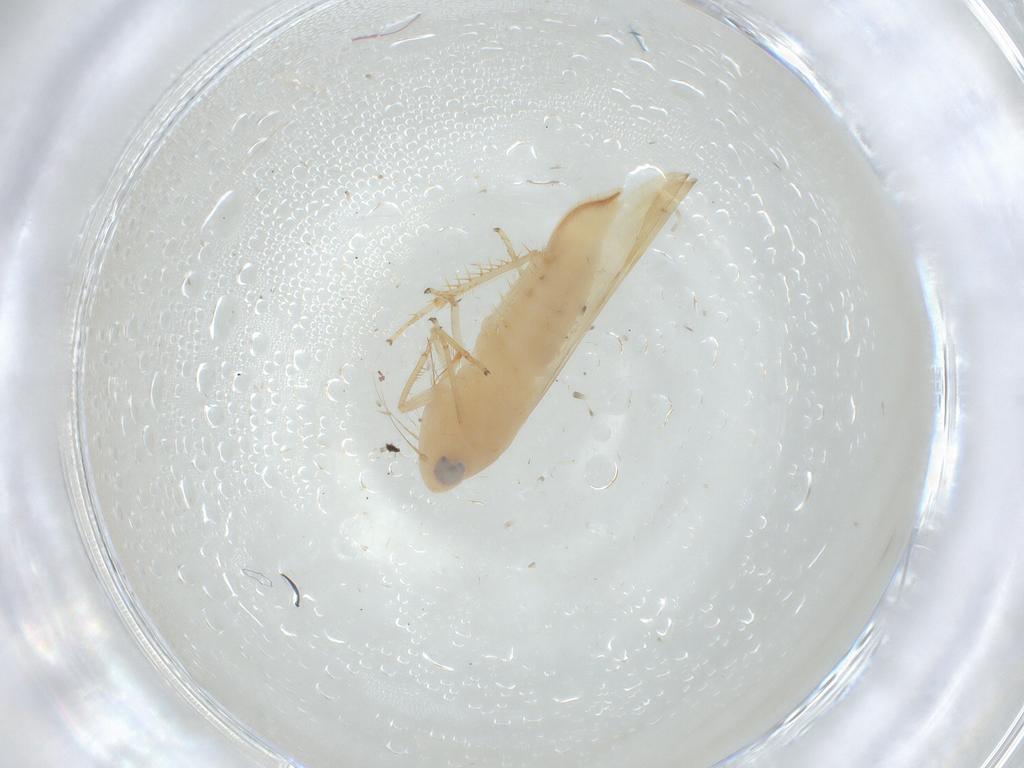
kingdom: Animalia
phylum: Arthropoda
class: Insecta
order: Hemiptera
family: Cicadellidae
